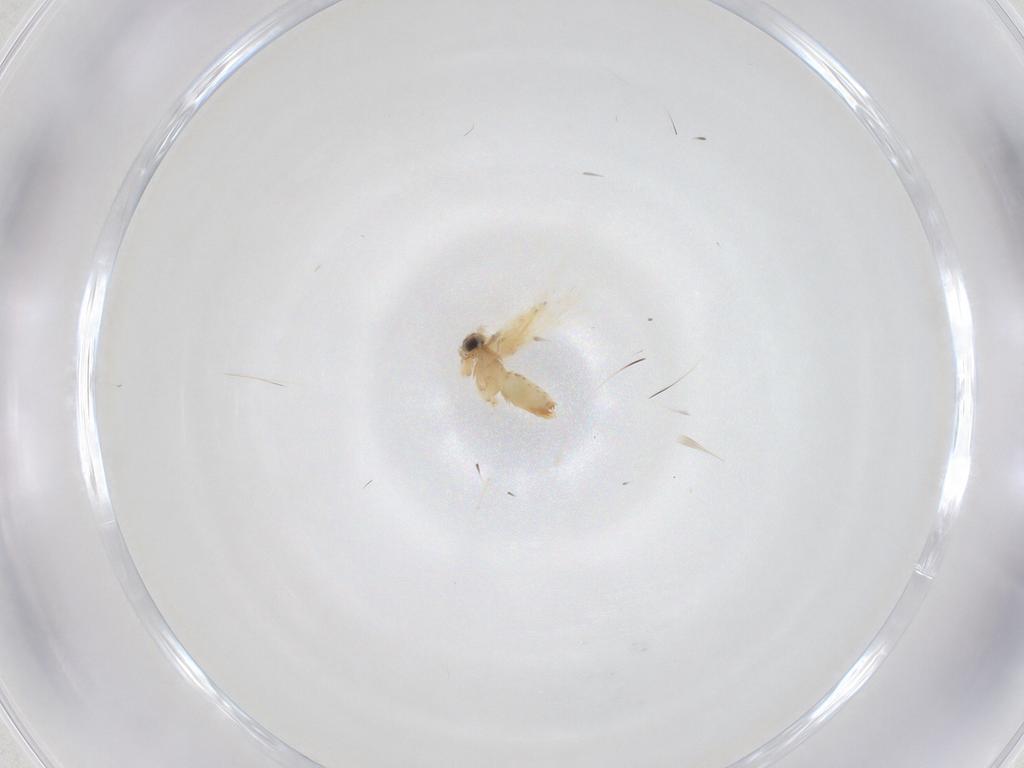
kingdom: Animalia
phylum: Arthropoda
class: Insecta
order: Lepidoptera
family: Crambidae
